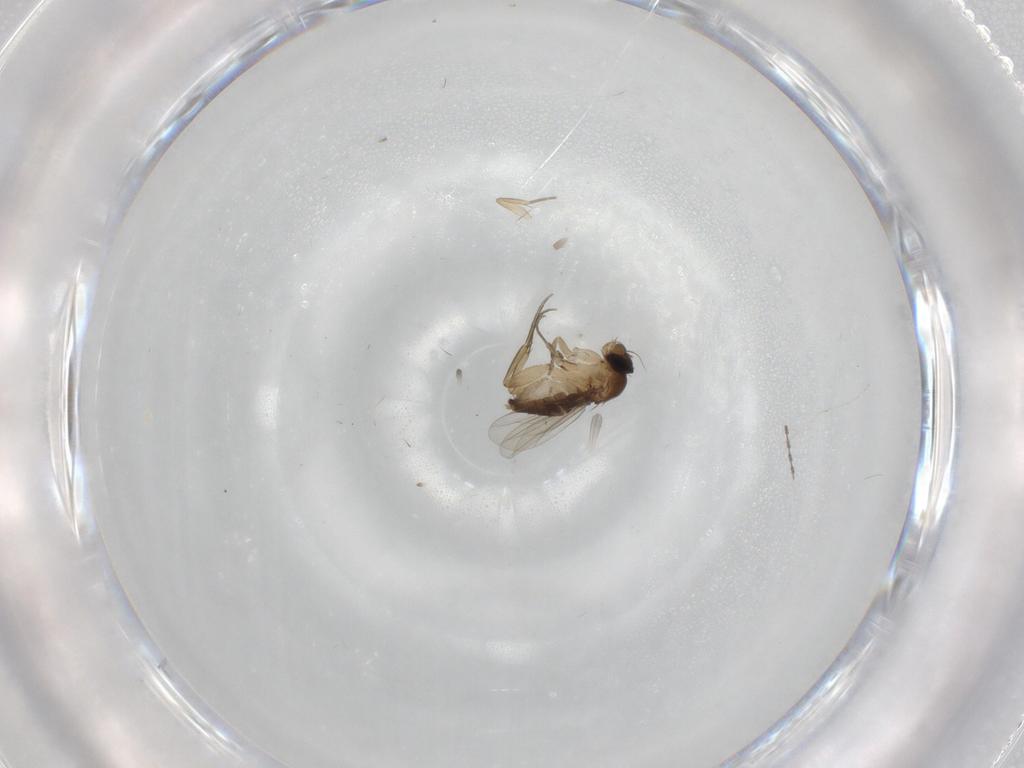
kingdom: Animalia
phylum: Arthropoda
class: Insecta
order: Diptera
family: Phoridae
